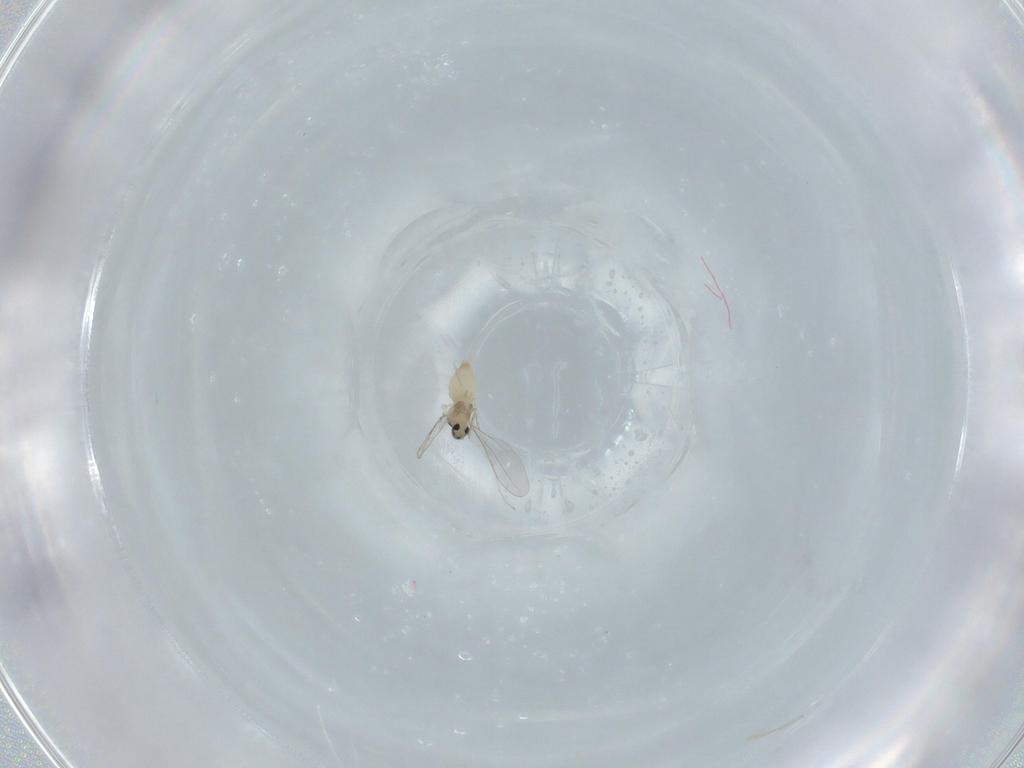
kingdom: Animalia
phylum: Arthropoda
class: Insecta
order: Diptera
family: Cecidomyiidae
